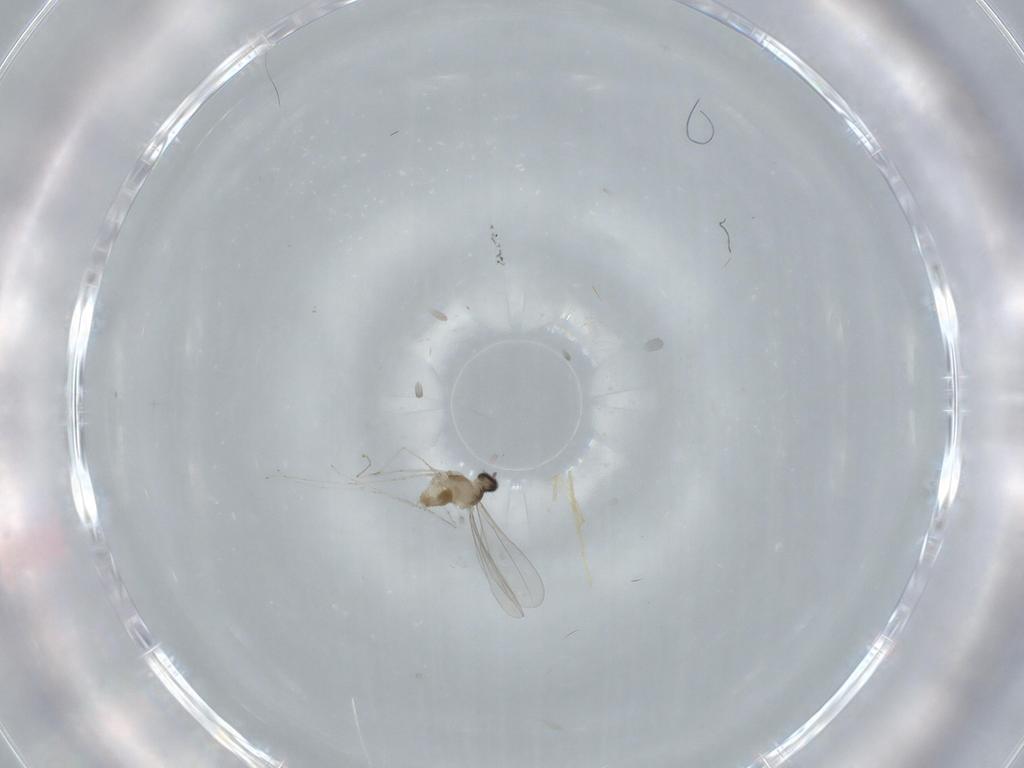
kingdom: Animalia
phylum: Arthropoda
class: Insecta
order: Diptera
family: Cecidomyiidae
